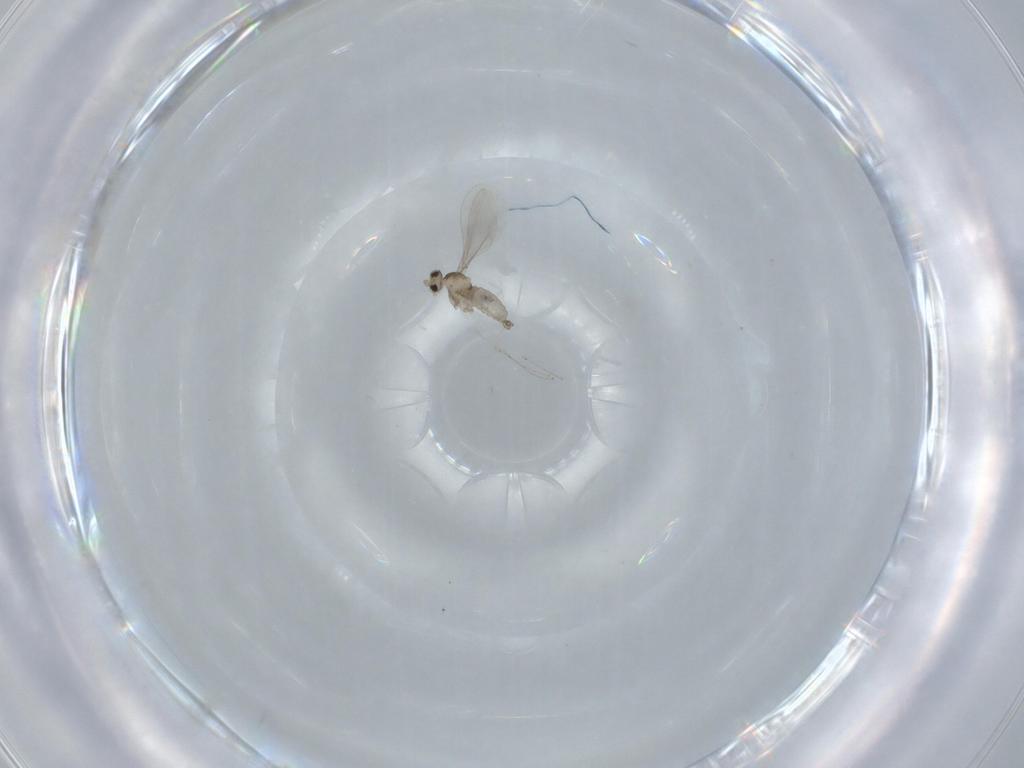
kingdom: Animalia
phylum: Arthropoda
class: Insecta
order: Diptera
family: Cecidomyiidae
